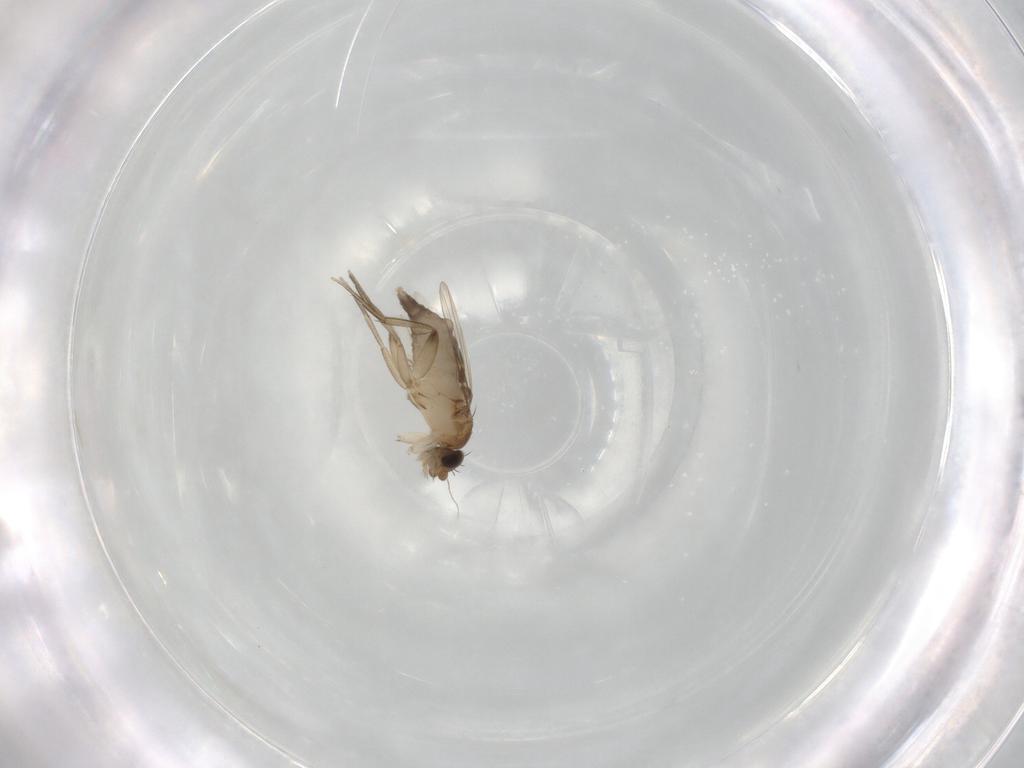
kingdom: Animalia
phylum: Arthropoda
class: Insecta
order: Diptera
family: Phoridae
